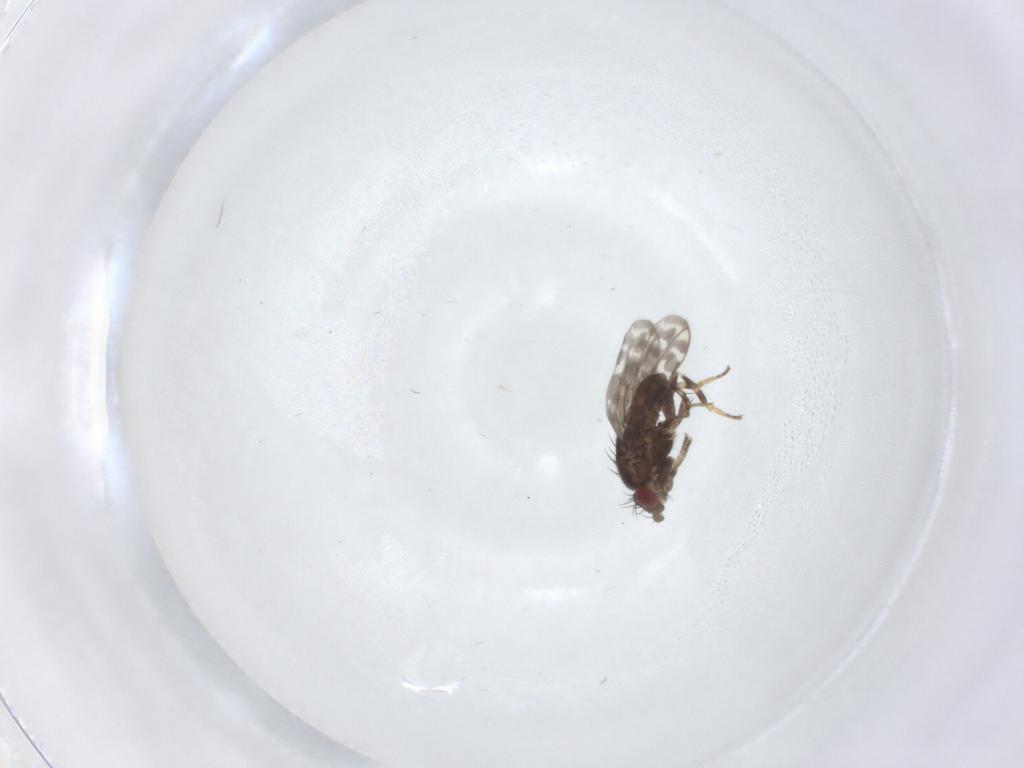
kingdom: Animalia
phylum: Arthropoda
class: Insecta
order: Diptera
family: Sphaeroceridae
